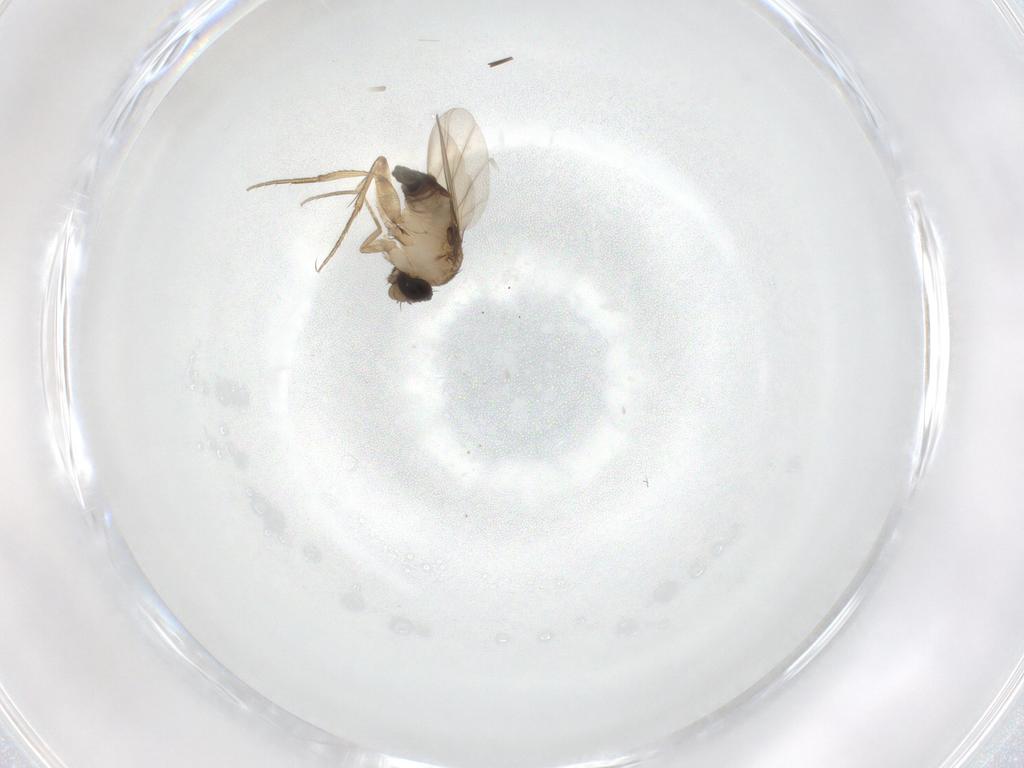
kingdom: Animalia
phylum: Arthropoda
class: Insecta
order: Diptera
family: Phoridae
